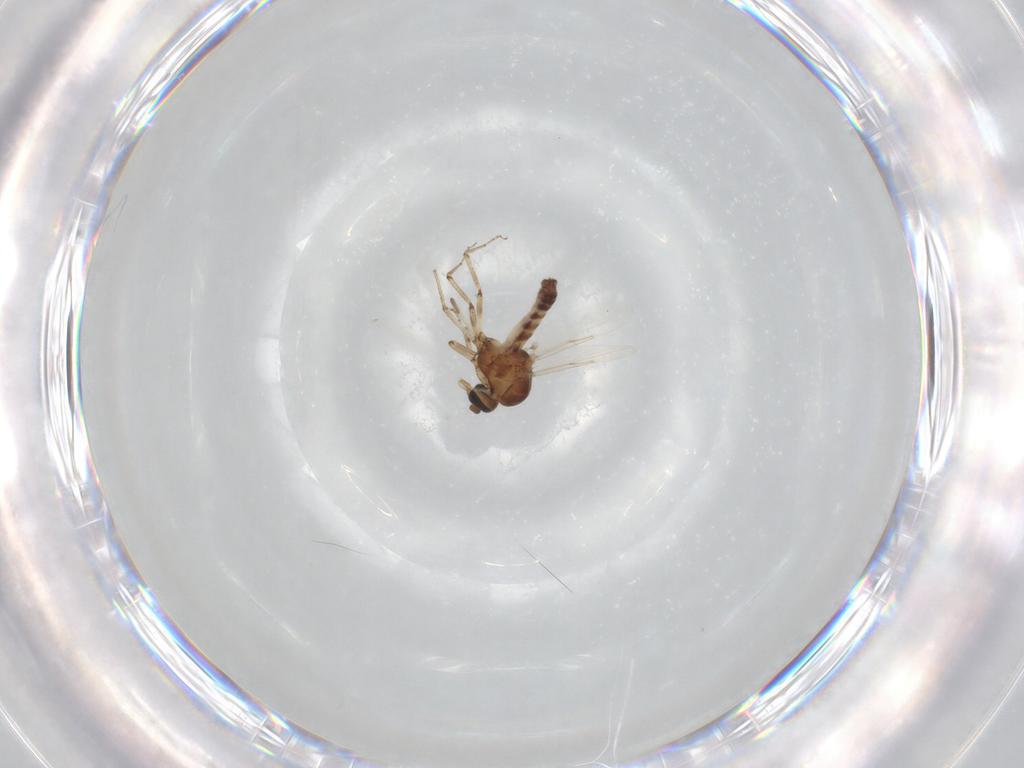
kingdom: Animalia
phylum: Arthropoda
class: Insecta
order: Diptera
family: Ceratopogonidae
